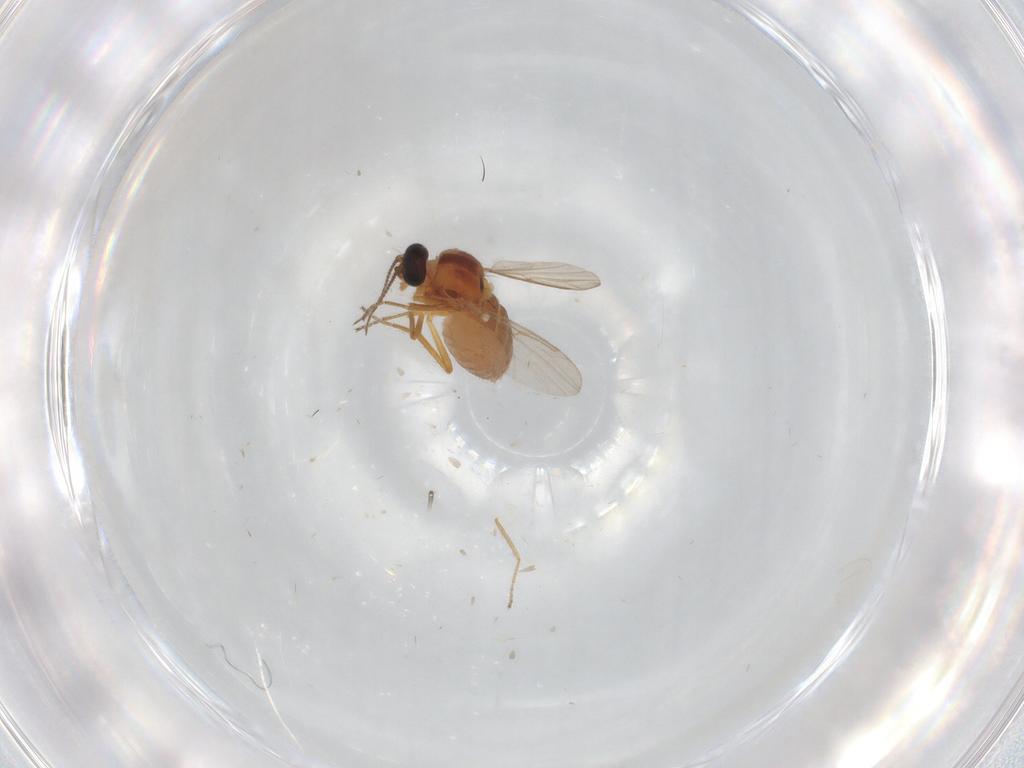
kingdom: Animalia
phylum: Arthropoda
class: Insecta
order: Diptera
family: Ceratopogonidae
